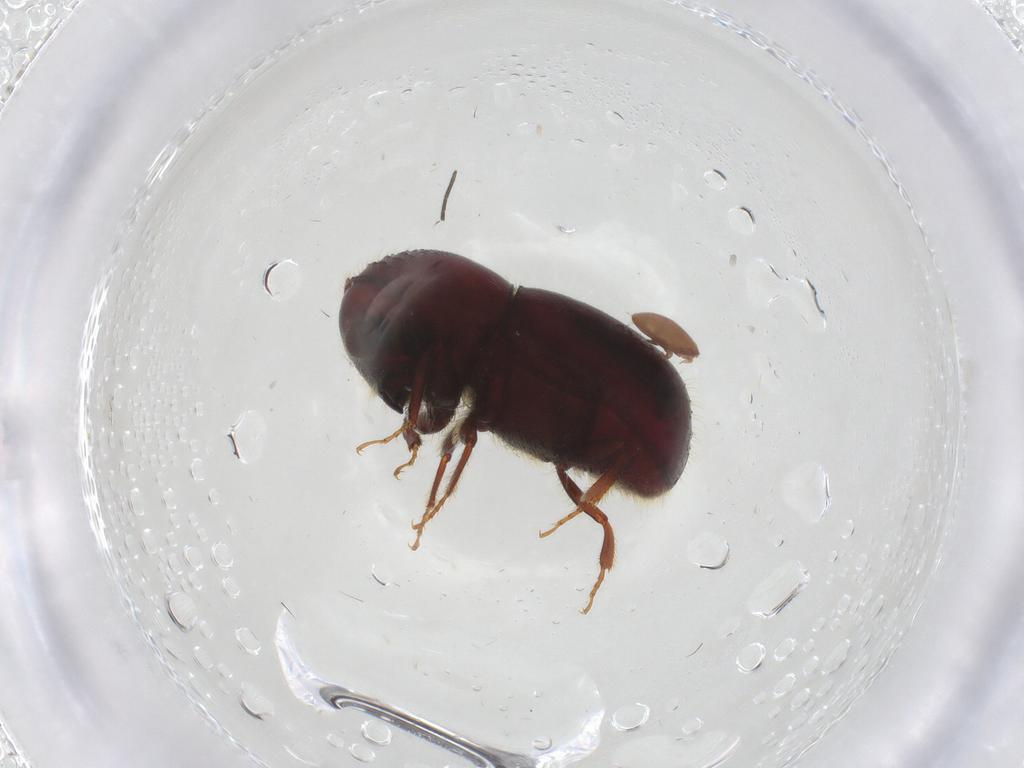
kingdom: Animalia
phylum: Arthropoda
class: Insecta
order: Coleoptera
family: Curculionidae
